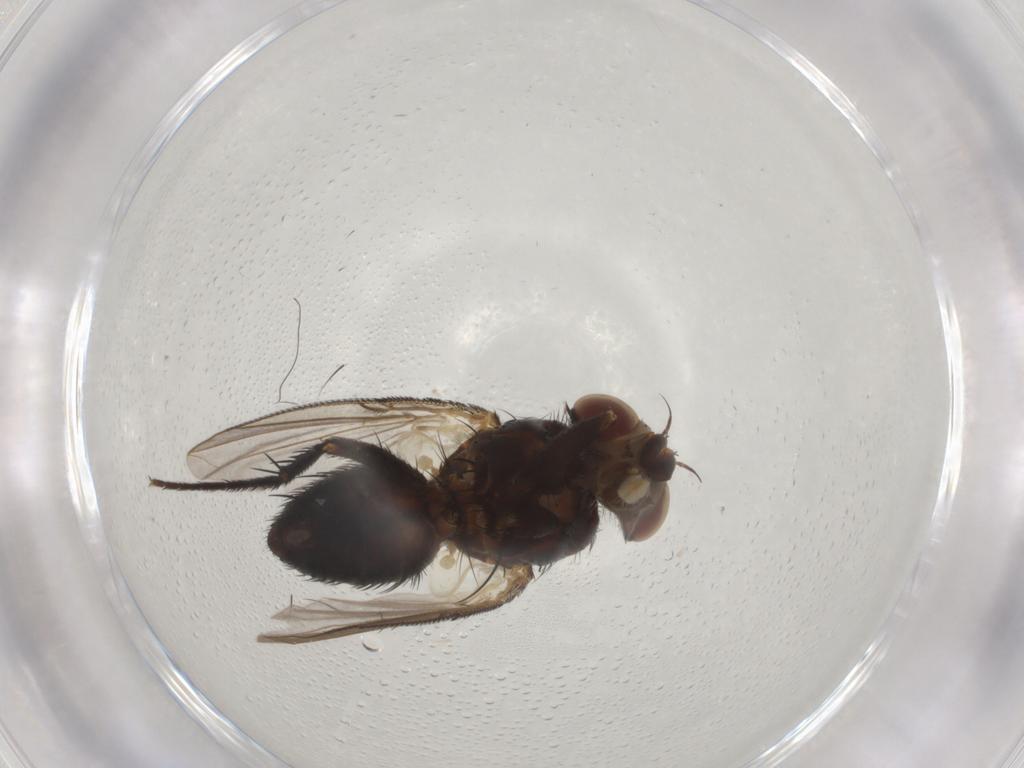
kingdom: Animalia
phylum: Arthropoda
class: Insecta
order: Diptera
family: Tachinidae
